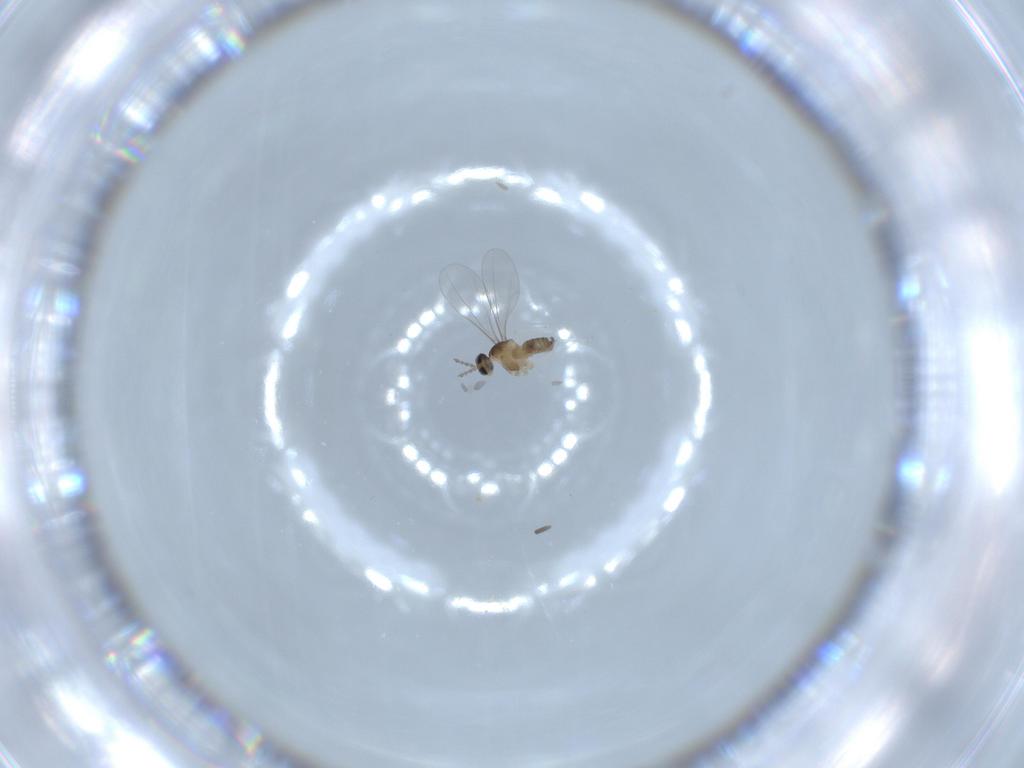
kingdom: Animalia
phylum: Arthropoda
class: Insecta
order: Diptera
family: Cecidomyiidae
